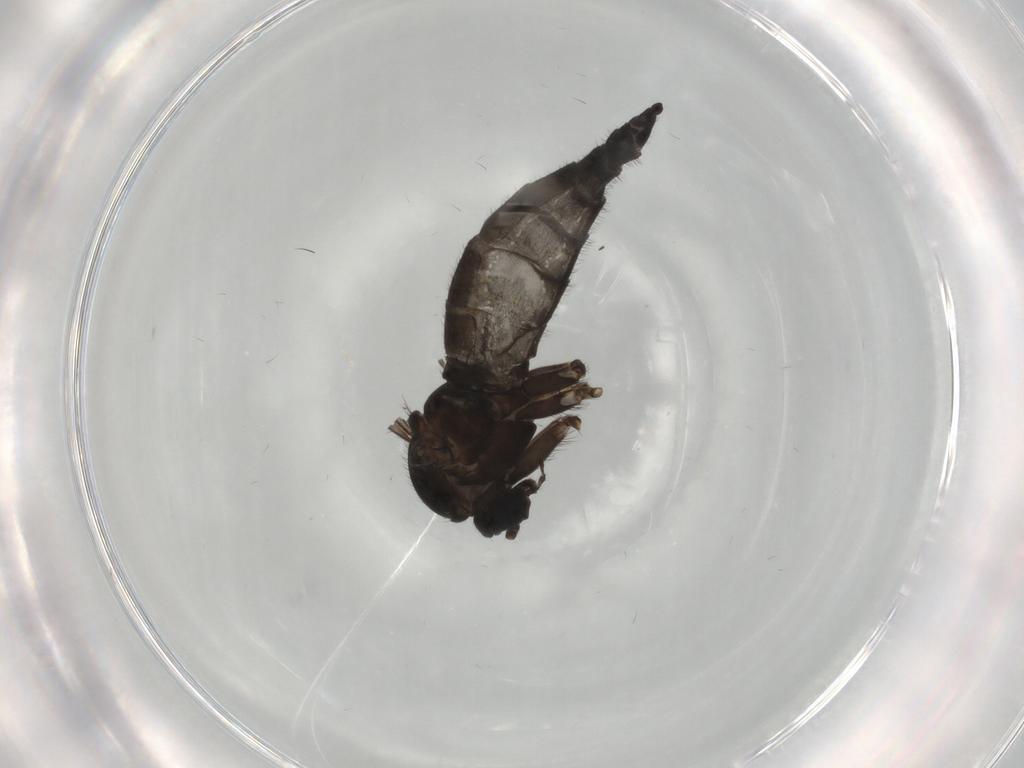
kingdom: Animalia
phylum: Arthropoda
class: Insecta
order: Diptera
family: Sciaridae
